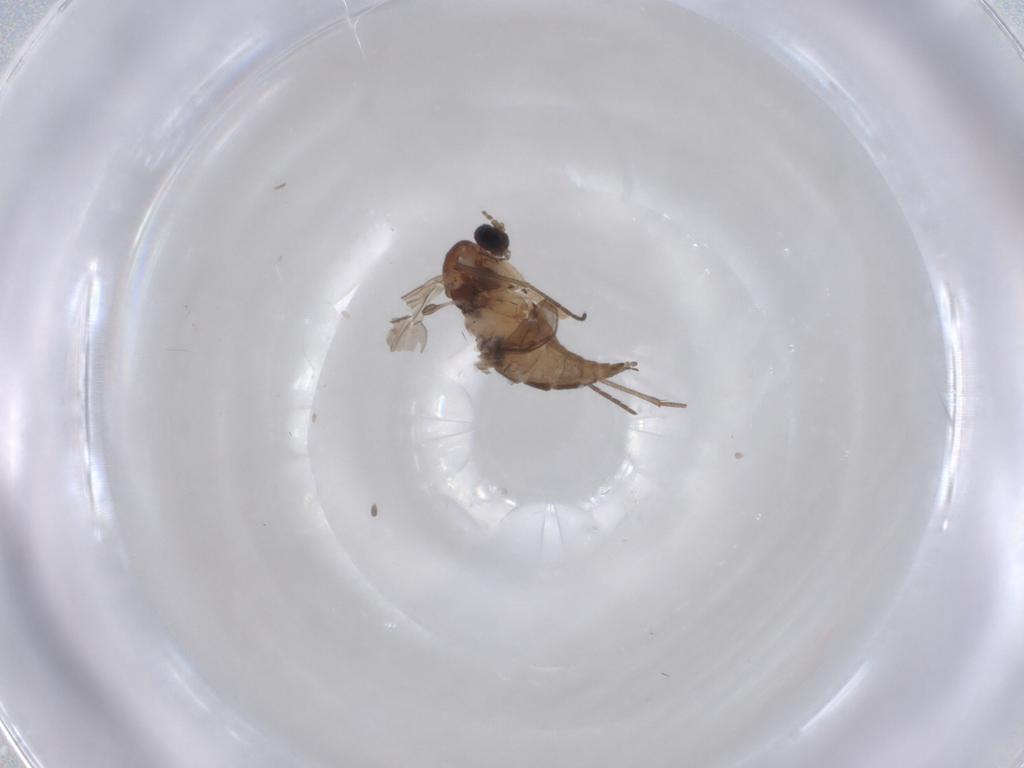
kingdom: Animalia
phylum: Arthropoda
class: Insecta
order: Diptera
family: Sciaridae
